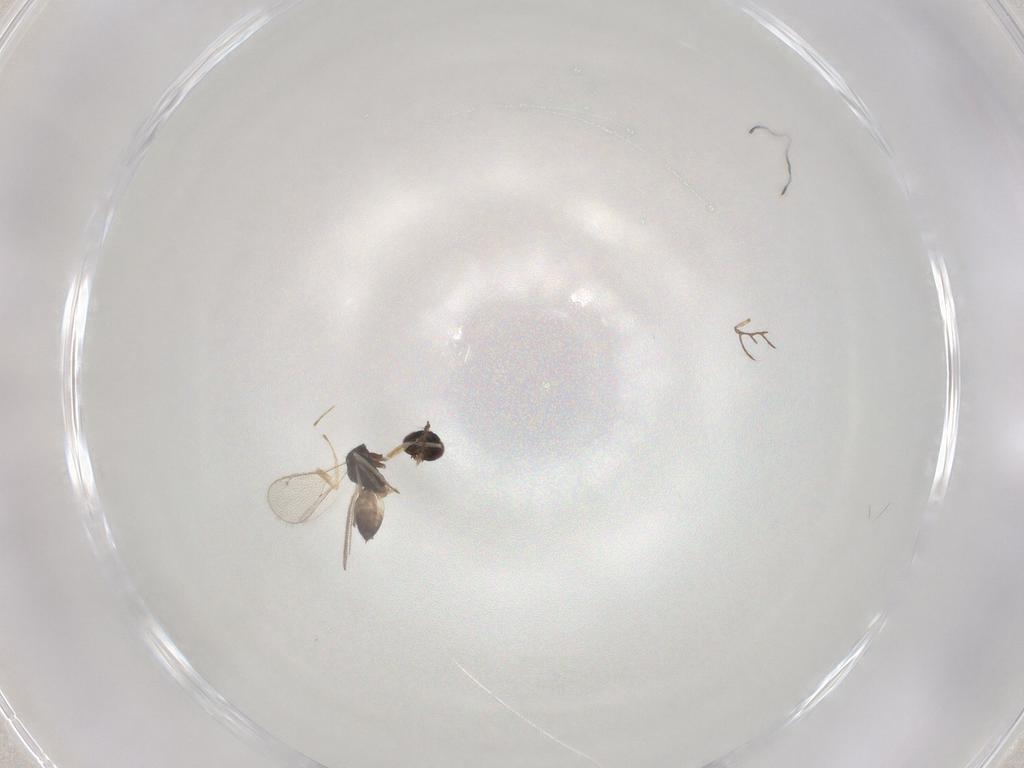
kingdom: Animalia
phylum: Arthropoda
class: Insecta
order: Hymenoptera
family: Eulophidae
